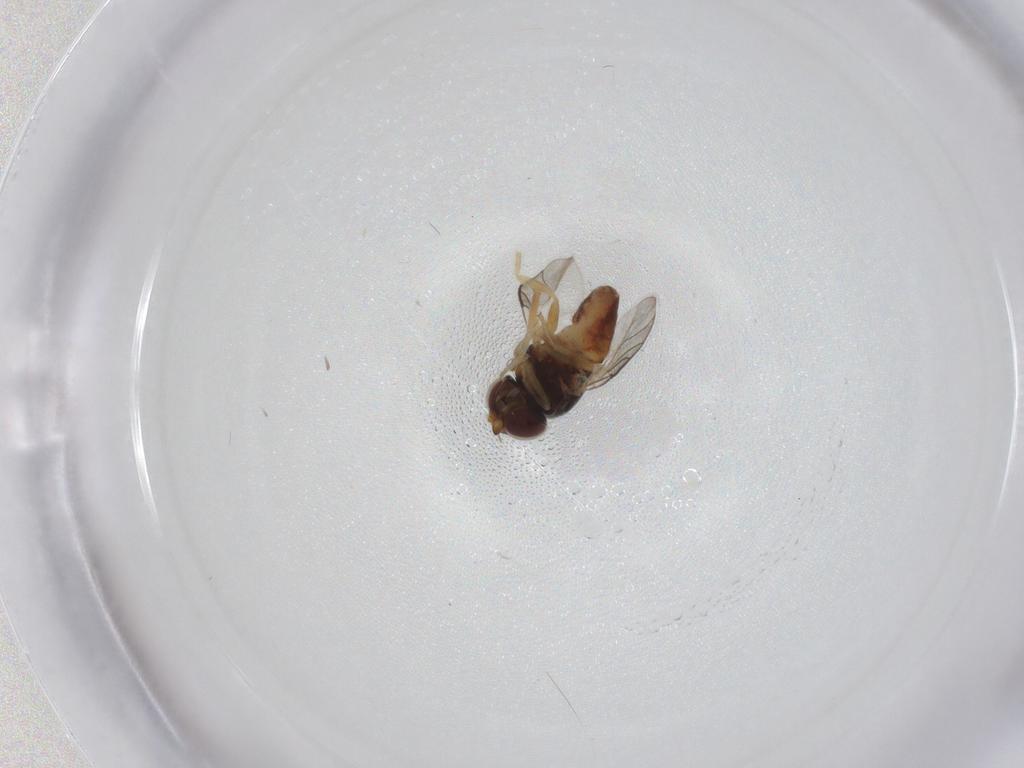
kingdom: Animalia
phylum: Arthropoda
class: Insecta
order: Diptera
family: Chloropidae
